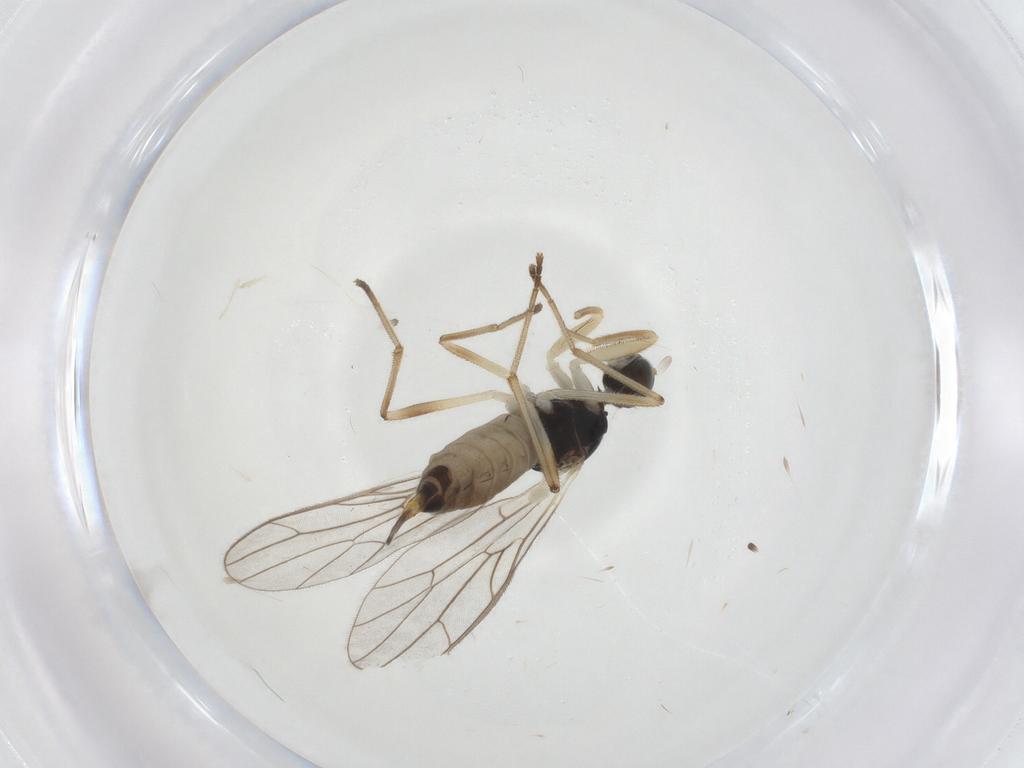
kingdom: Animalia
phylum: Arthropoda
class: Insecta
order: Diptera
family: Empididae
